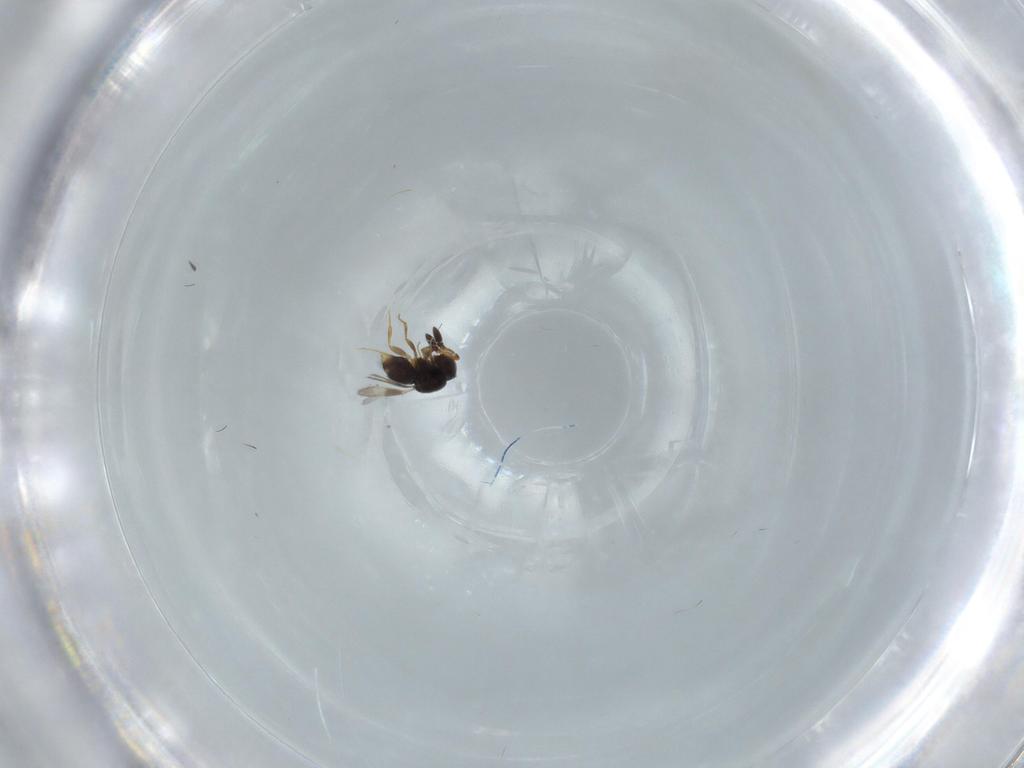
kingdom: Animalia
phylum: Arthropoda
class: Insecta
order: Hymenoptera
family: Scelionidae
